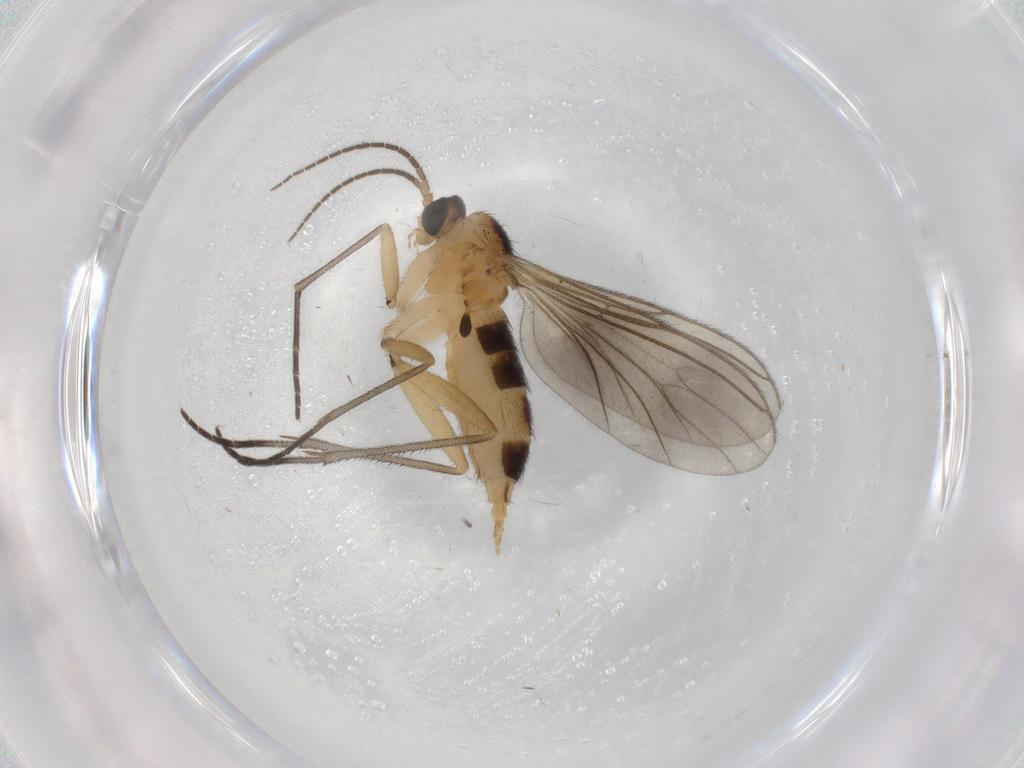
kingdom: Animalia
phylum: Arthropoda
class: Insecta
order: Diptera
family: Sciaridae
